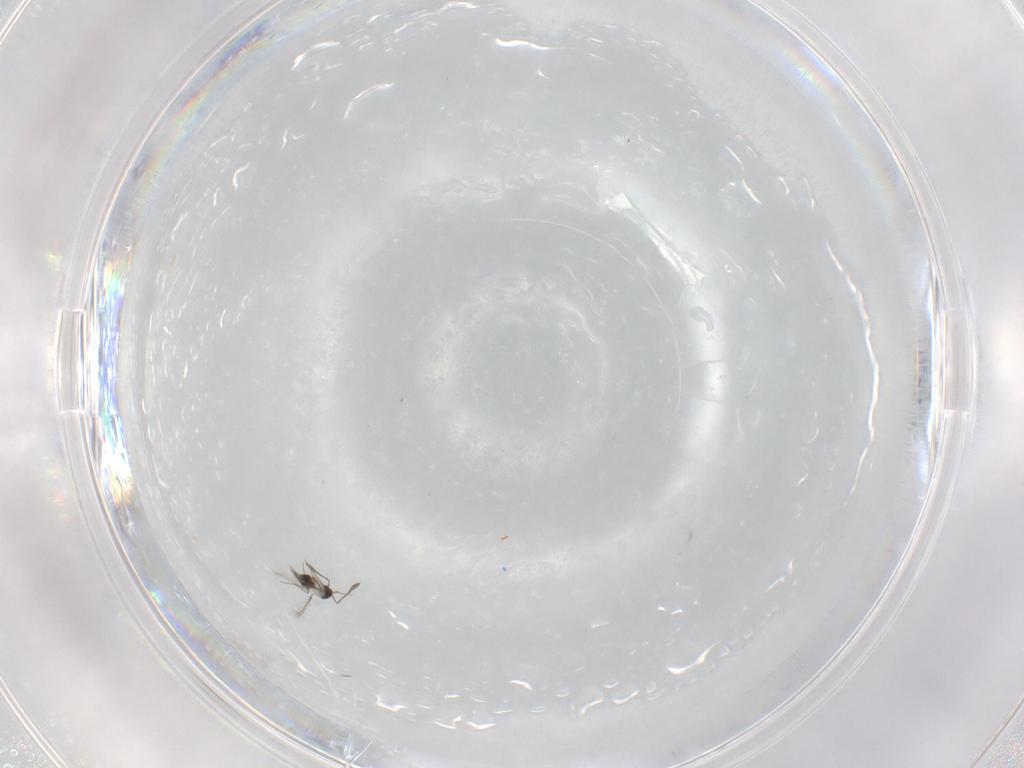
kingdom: Animalia
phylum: Arthropoda
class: Insecta
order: Hymenoptera
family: Mymaridae
